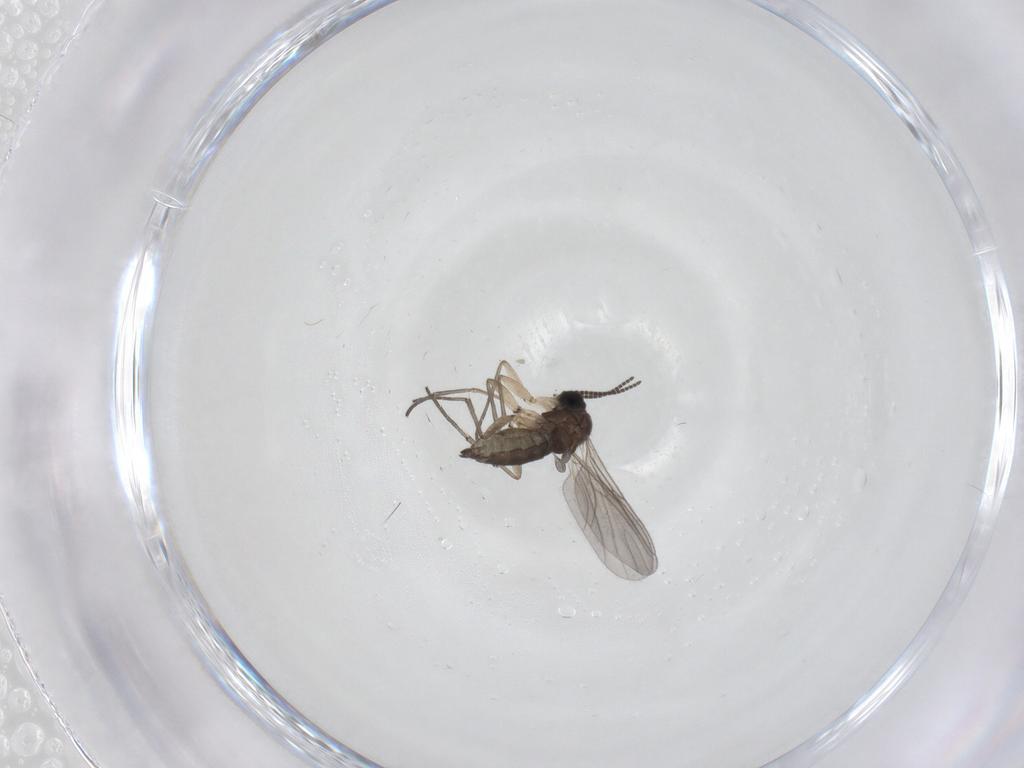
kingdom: Animalia
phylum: Arthropoda
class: Insecta
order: Diptera
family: Sciaridae
